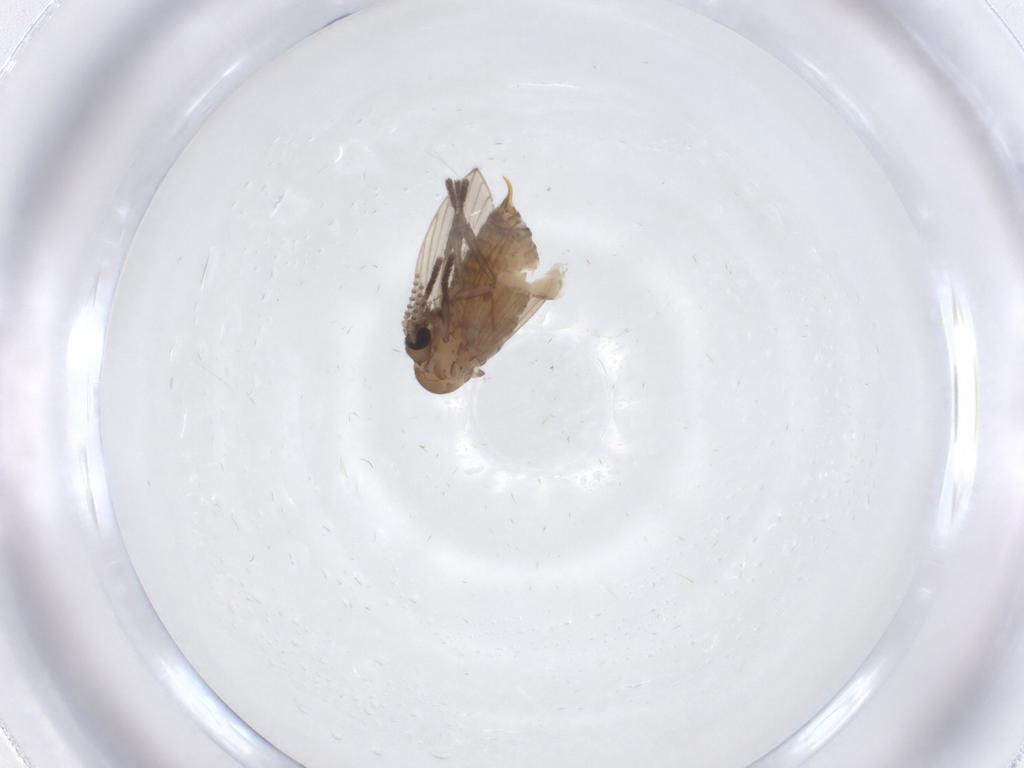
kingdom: Animalia
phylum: Arthropoda
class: Insecta
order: Diptera
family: Psychodidae
